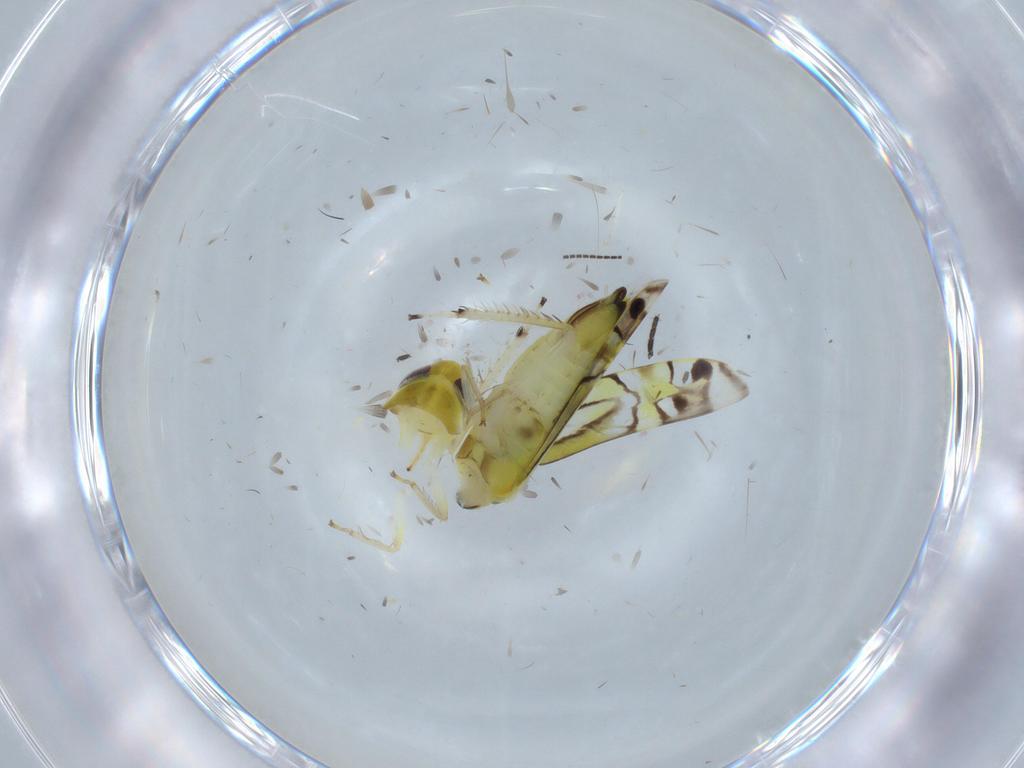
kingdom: Animalia
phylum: Arthropoda
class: Insecta
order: Hemiptera
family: Cicadellidae
